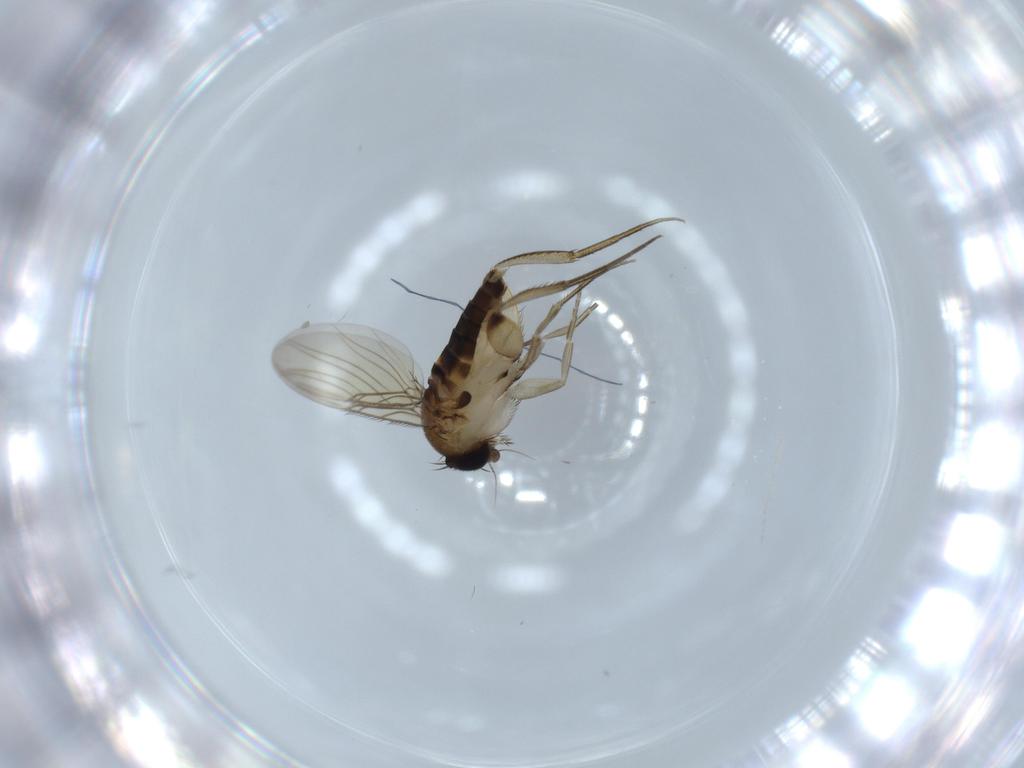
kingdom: Animalia
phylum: Arthropoda
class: Insecta
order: Diptera
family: Phoridae
